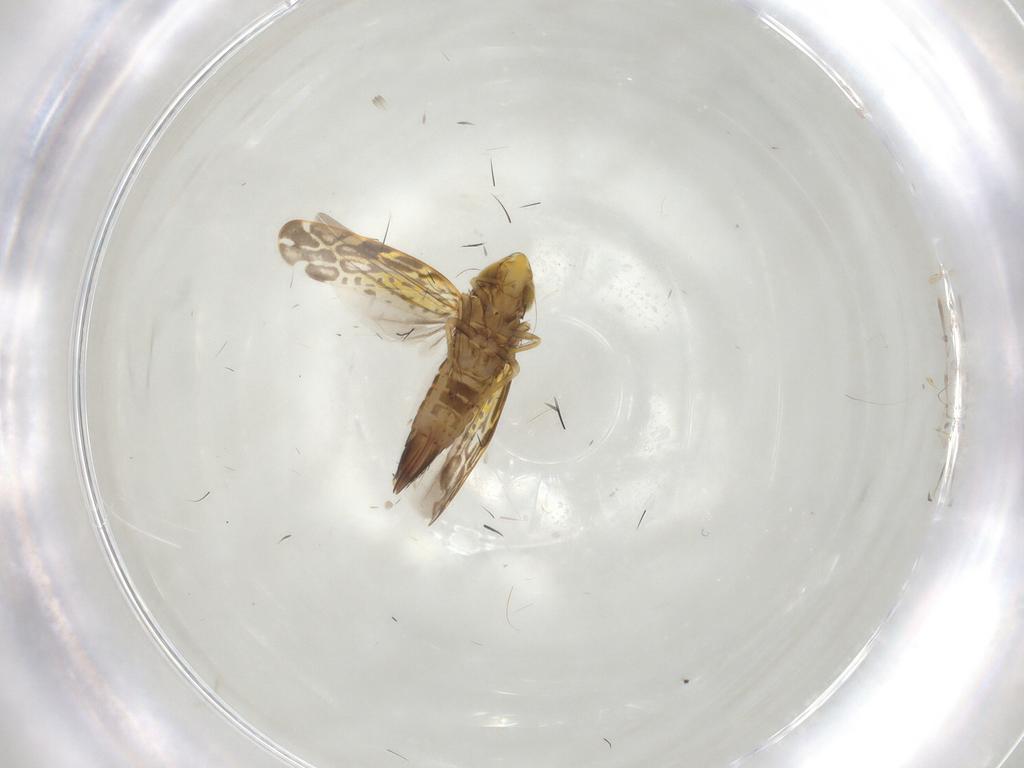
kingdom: Animalia
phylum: Arthropoda
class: Insecta
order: Hemiptera
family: Cicadellidae
